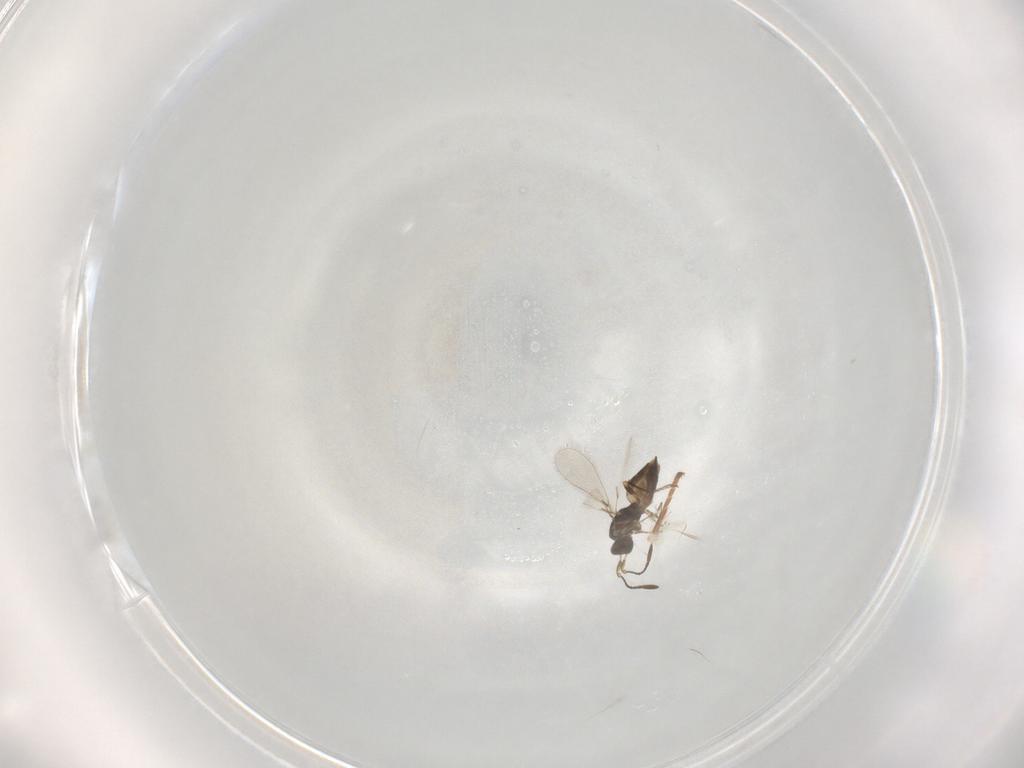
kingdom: Animalia
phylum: Arthropoda
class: Insecta
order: Hymenoptera
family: Mymaridae
